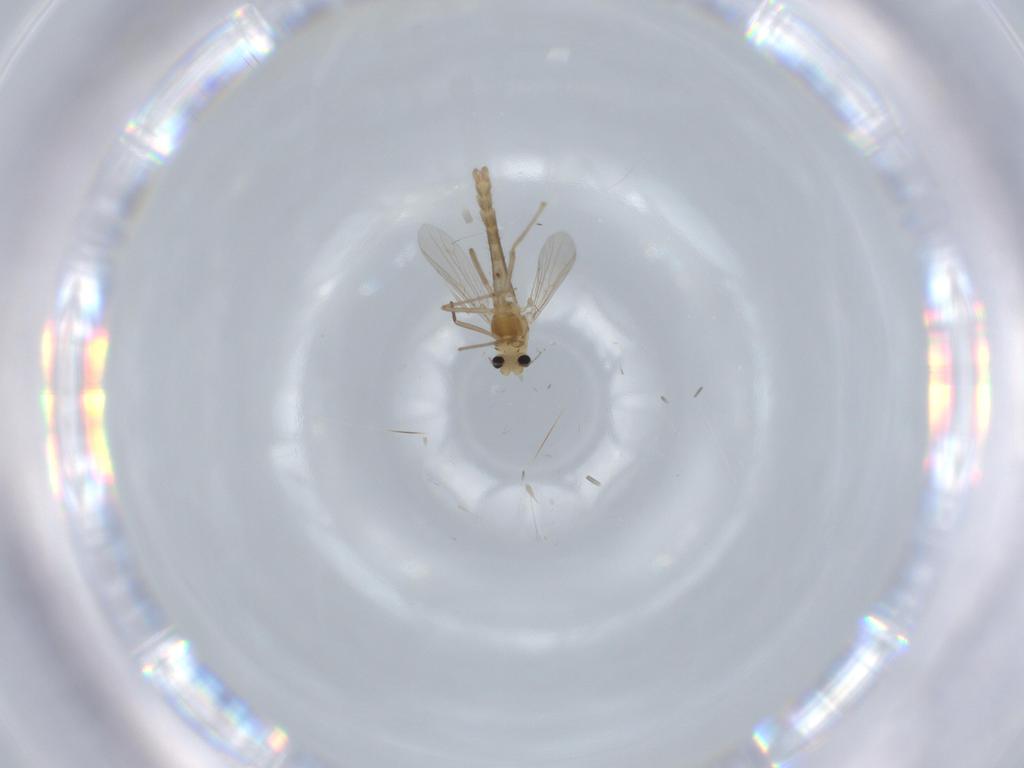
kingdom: Animalia
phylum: Arthropoda
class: Insecta
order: Diptera
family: Chironomidae
